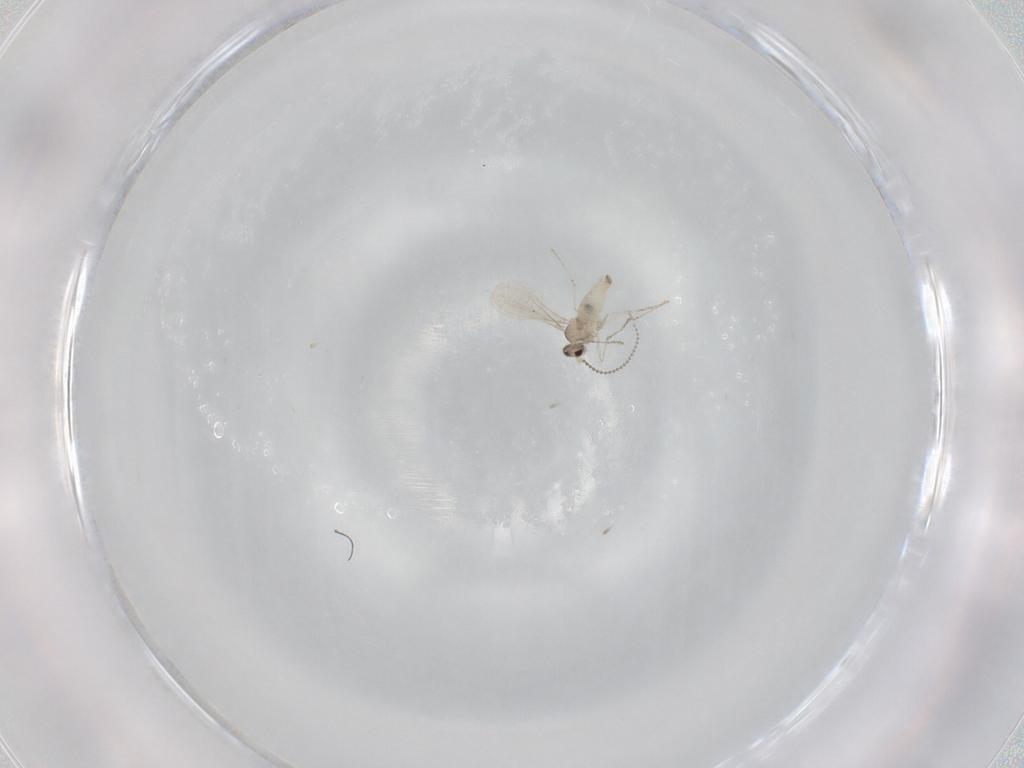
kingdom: Animalia
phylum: Arthropoda
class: Insecta
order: Diptera
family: Cecidomyiidae
